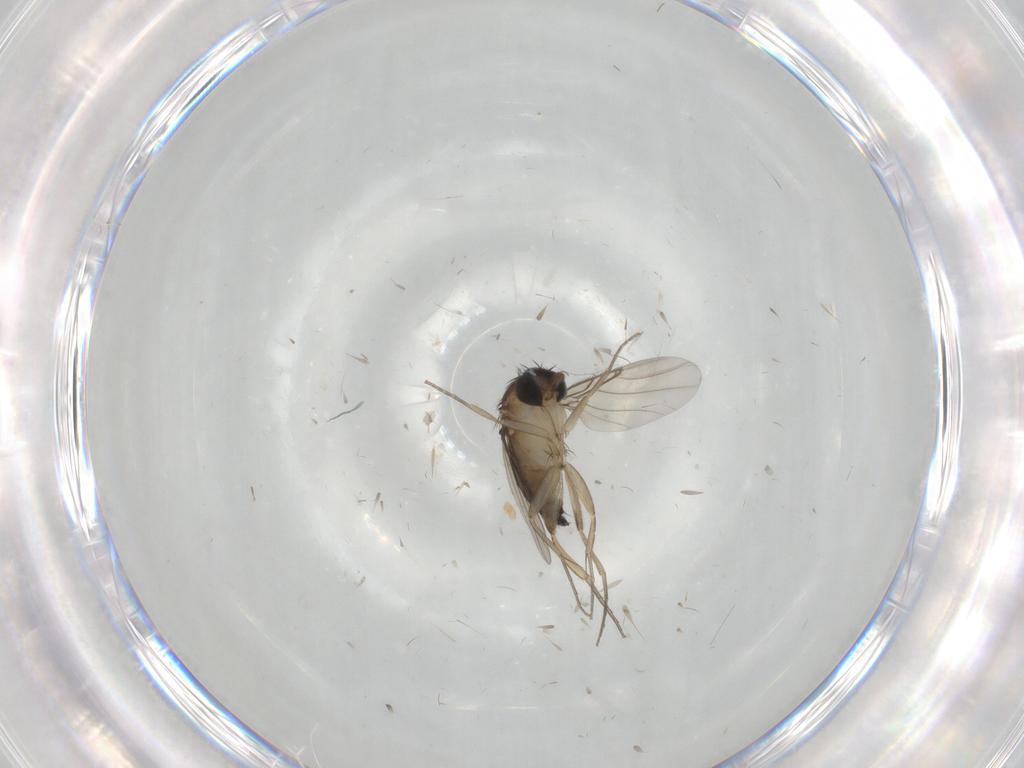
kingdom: Animalia
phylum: Arthropoda
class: Insecta
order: Diptera
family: Phoridae
